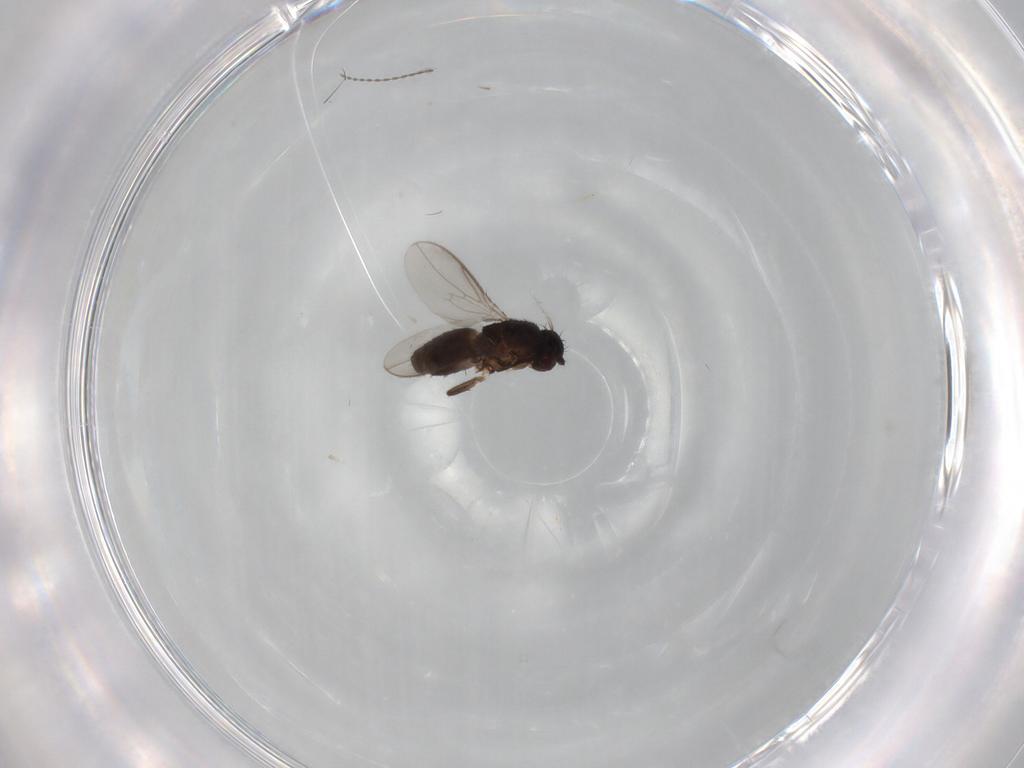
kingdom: Animalia
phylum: Arthropoda
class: Insecta
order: Diptera
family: Sphaeroceridae
